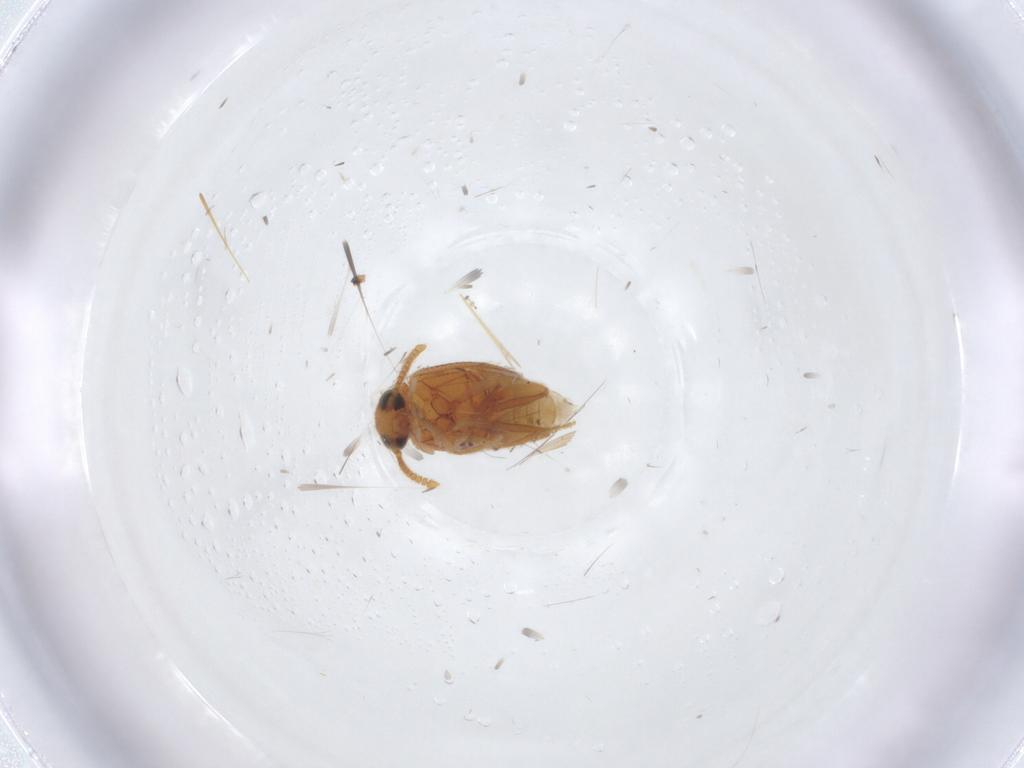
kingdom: Animalia
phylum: Arthropoda
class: Insecta
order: Coleoptera
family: Aderidae
